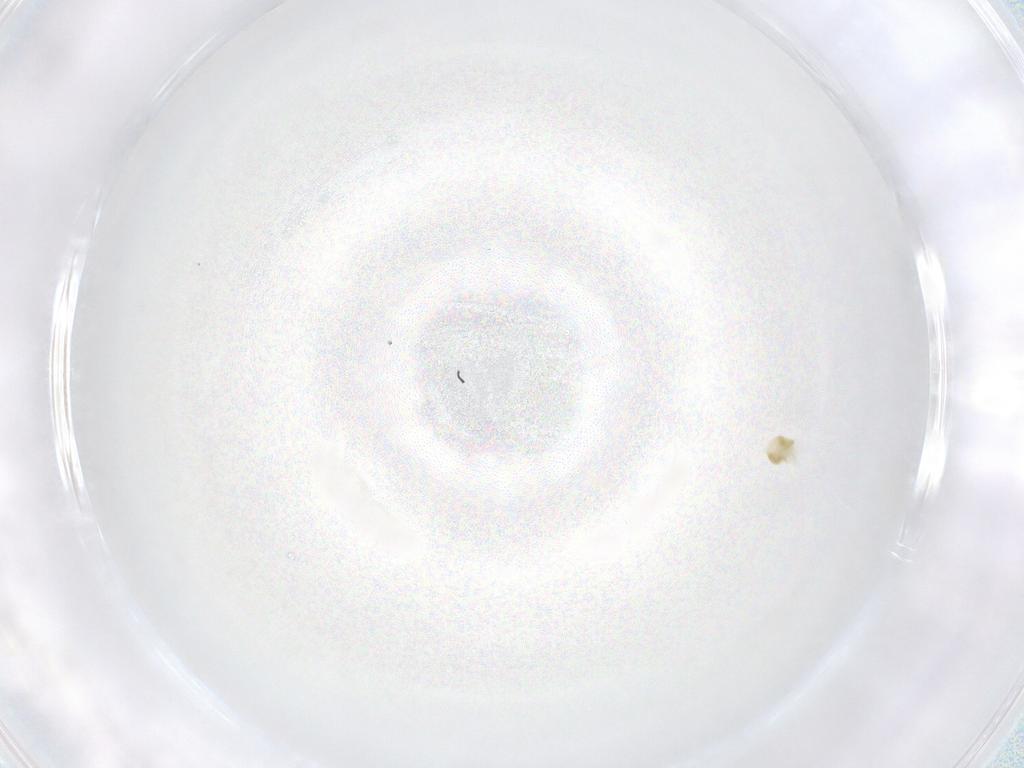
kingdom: Animalia
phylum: Arthropoda
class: Arachnida
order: Trombidiformes
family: Eupodidae
